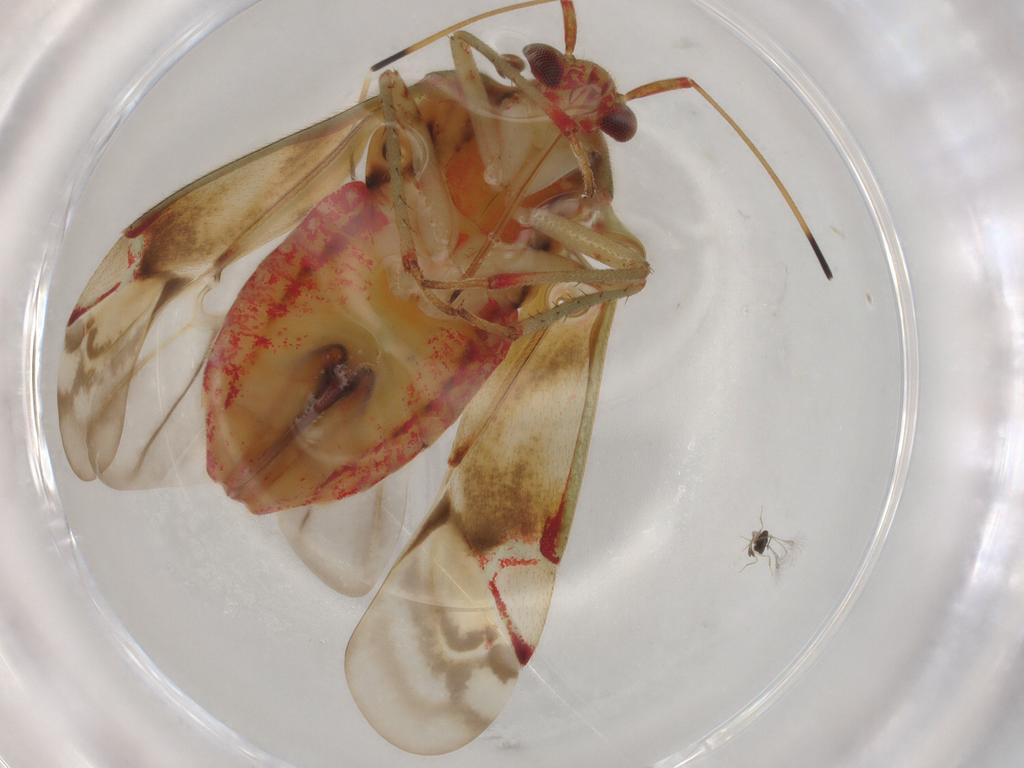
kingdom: Animalia
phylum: Arthropoda
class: Insecta
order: Hemiptera
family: Miridae
